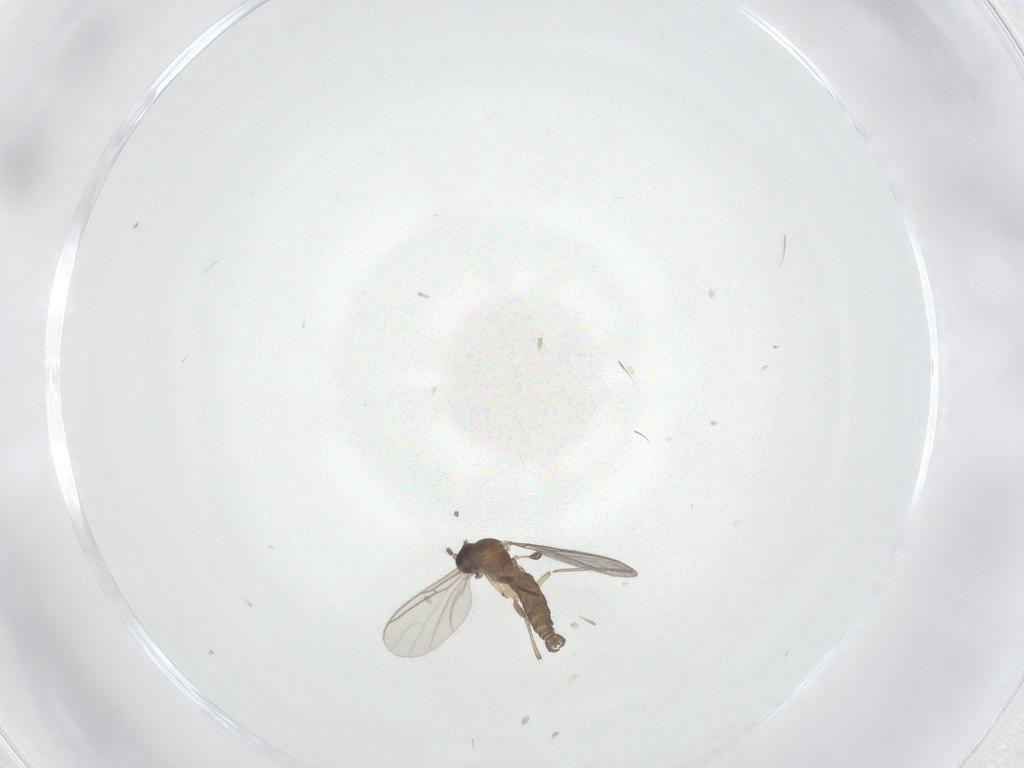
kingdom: Animalia
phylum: Arthropoda
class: Insecta
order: Diptera
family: Sciaridae
